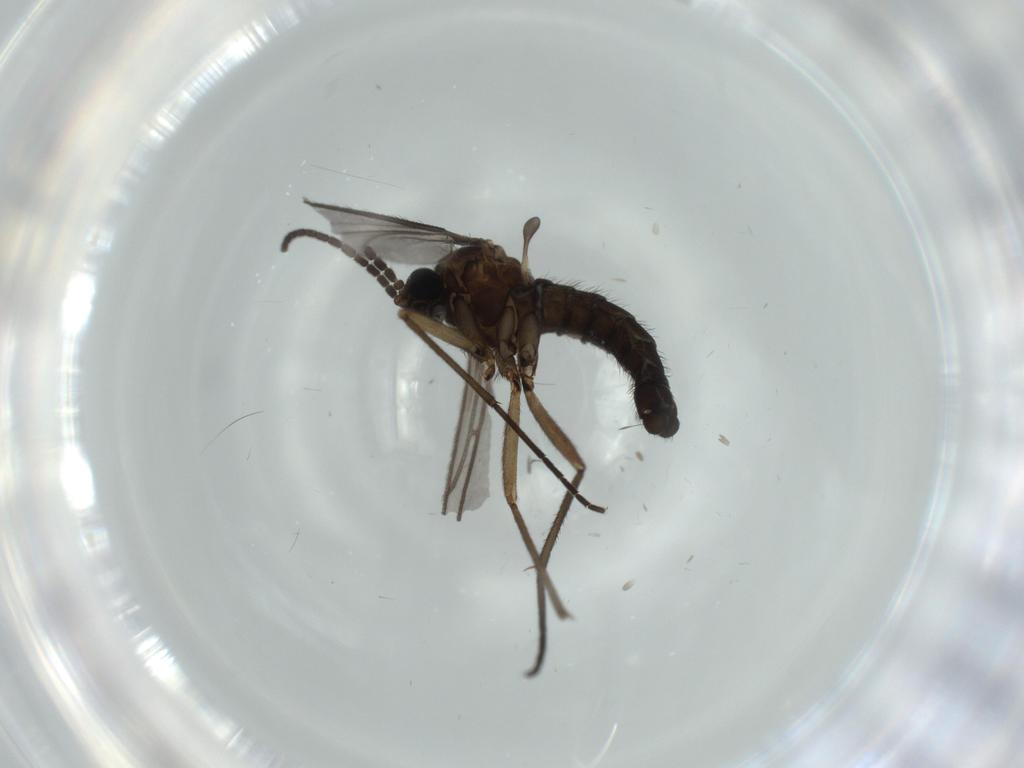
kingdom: Animalia
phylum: Arthropoda
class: Insecta
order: Diptera
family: Sciaridae
